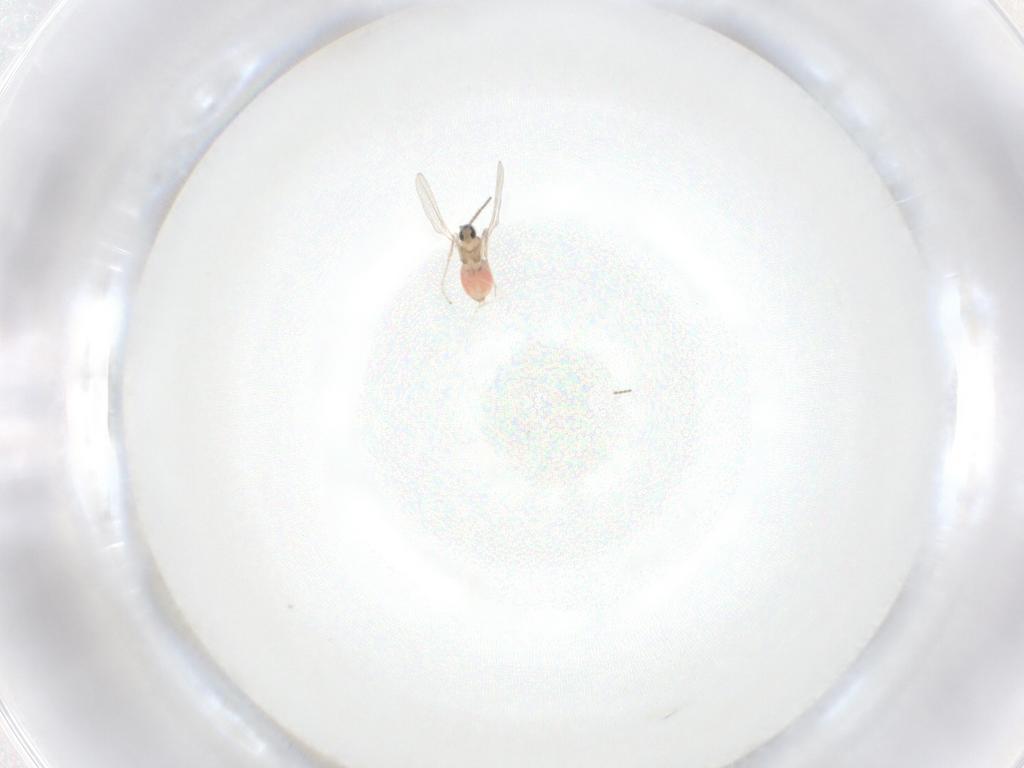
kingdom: Animalia
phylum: Arthropoda
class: Insecta
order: Diptera
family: Cecidomyiidae
